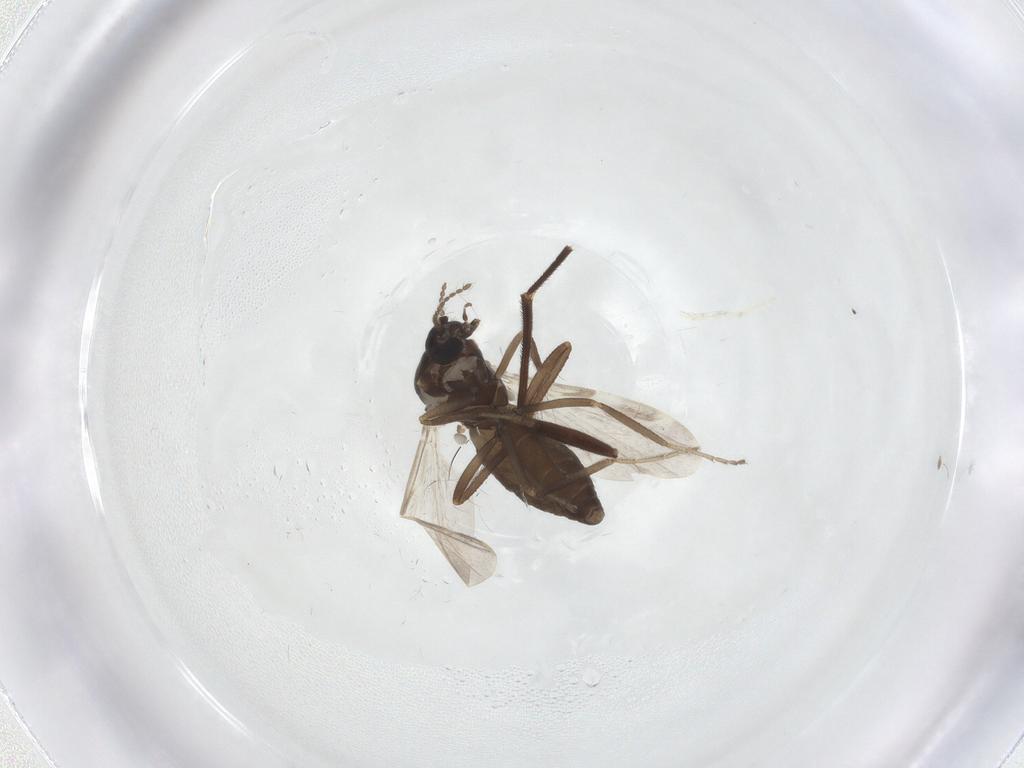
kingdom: Animalia
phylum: Arthropoda
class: Insecta
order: Diptera
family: Ceratopogonidae
